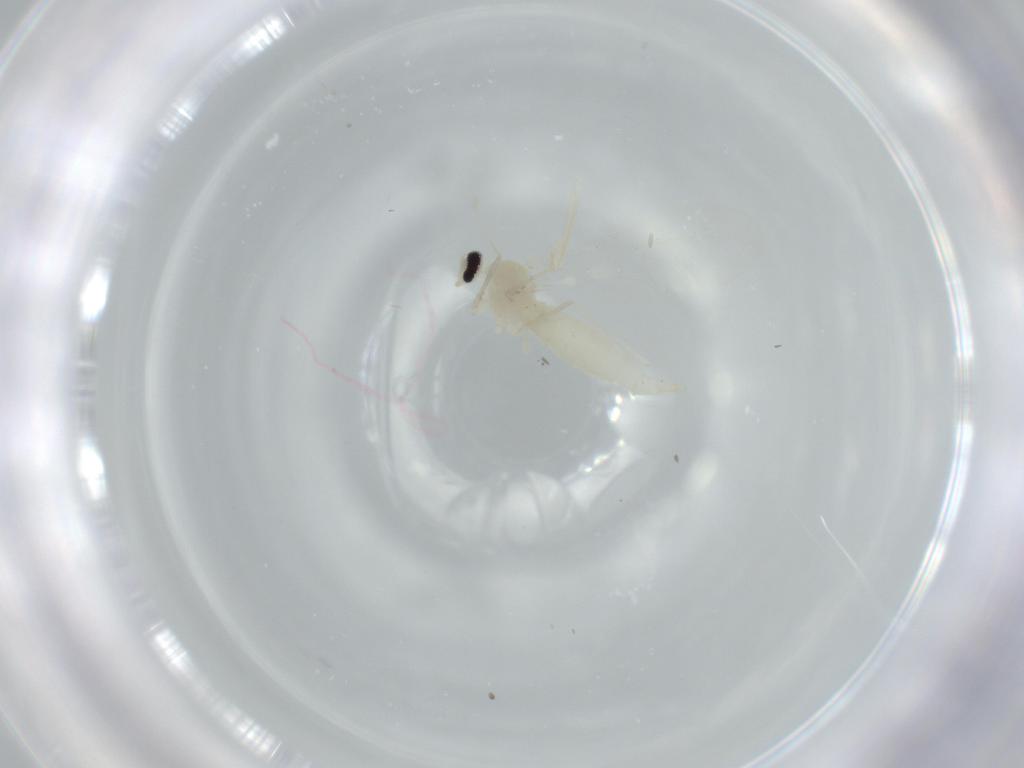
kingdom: Animalia
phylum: Arthropoda
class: Insecta
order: Diptera
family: Cecidomyiidae
